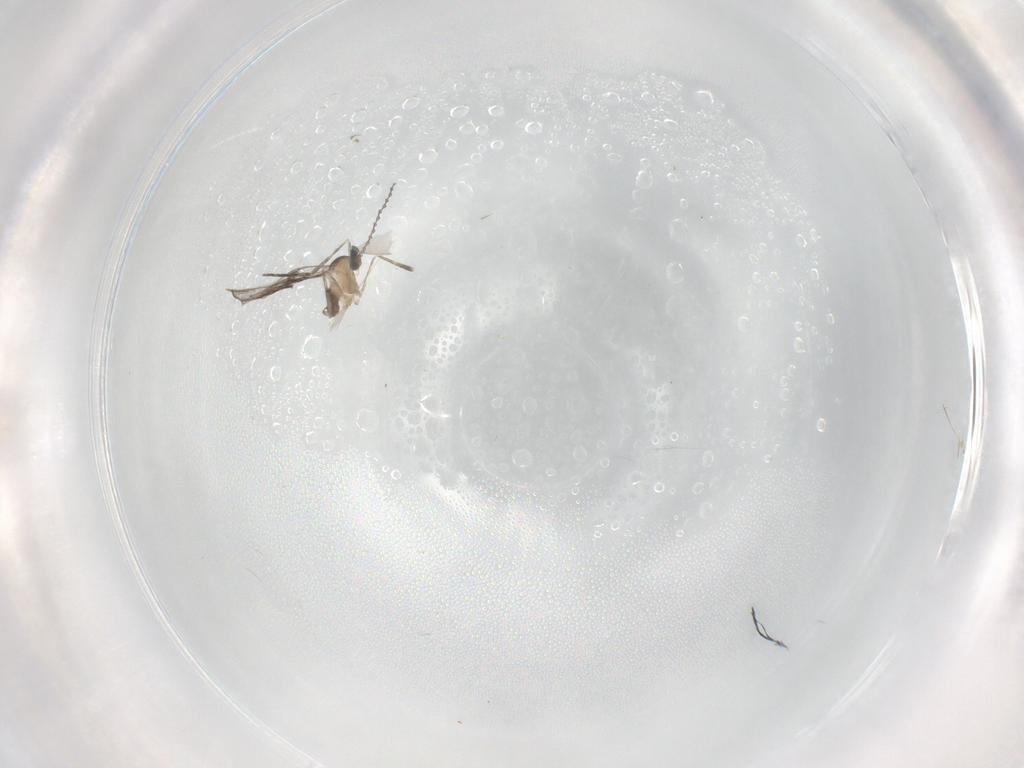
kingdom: Animalia
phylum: Arthropoda
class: Insecta
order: Diptera
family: Cecidomyiidae
